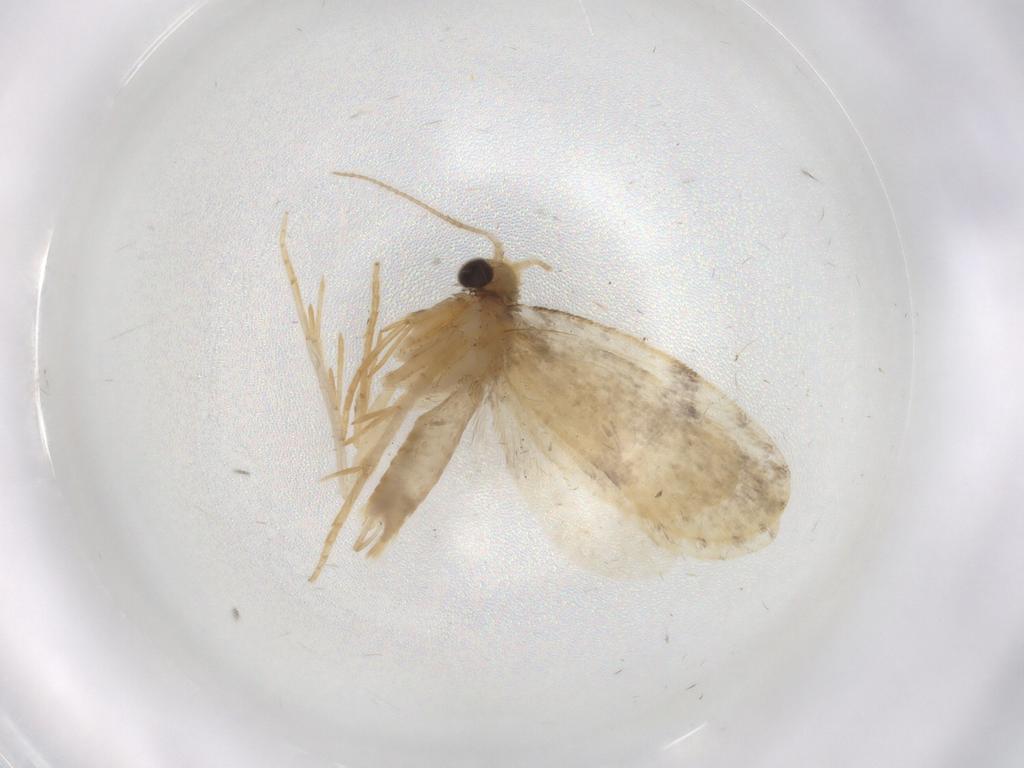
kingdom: Animalia
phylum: Arthropoda
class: Insecta
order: Lepidoptera
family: Psychidae
